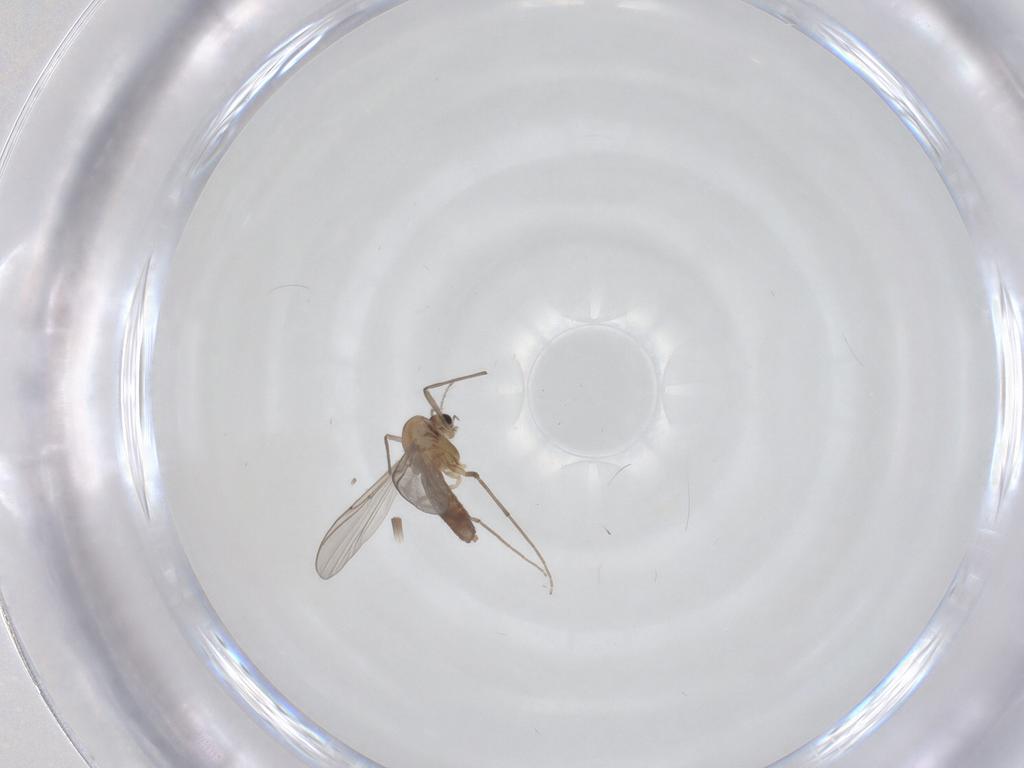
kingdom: Animalia
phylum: Arthropoda
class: Insecta
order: Diptera
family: Chironomidae
